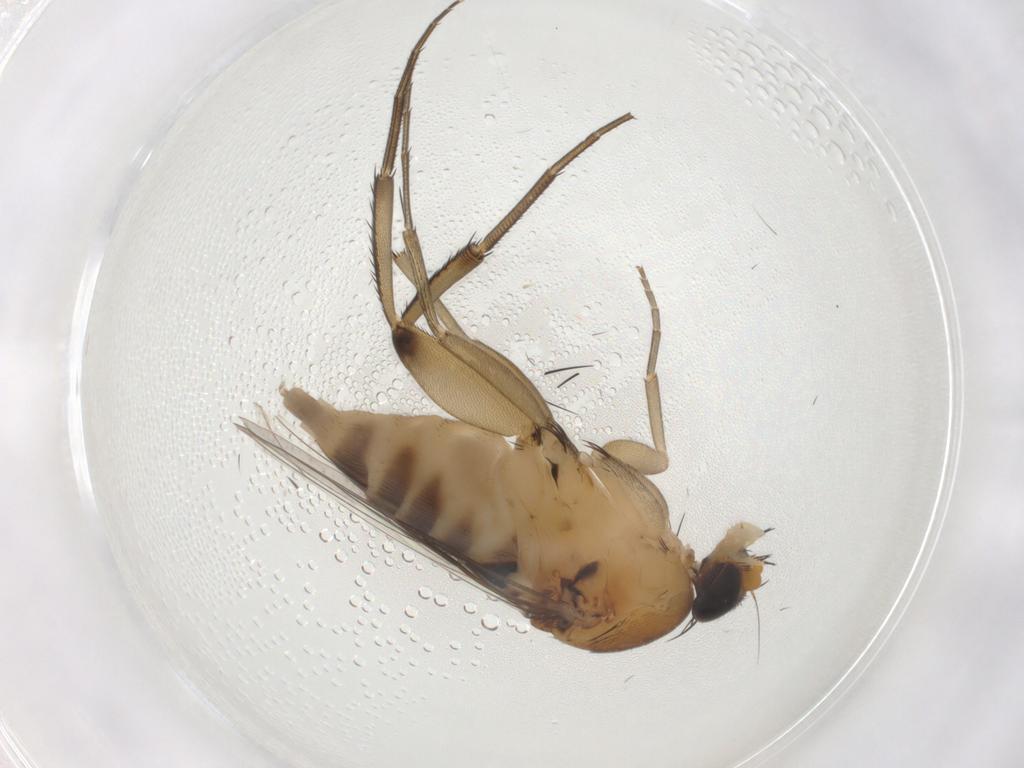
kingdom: Animalia
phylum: Arthropoda
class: Insecta
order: Diptera
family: Phoridae
